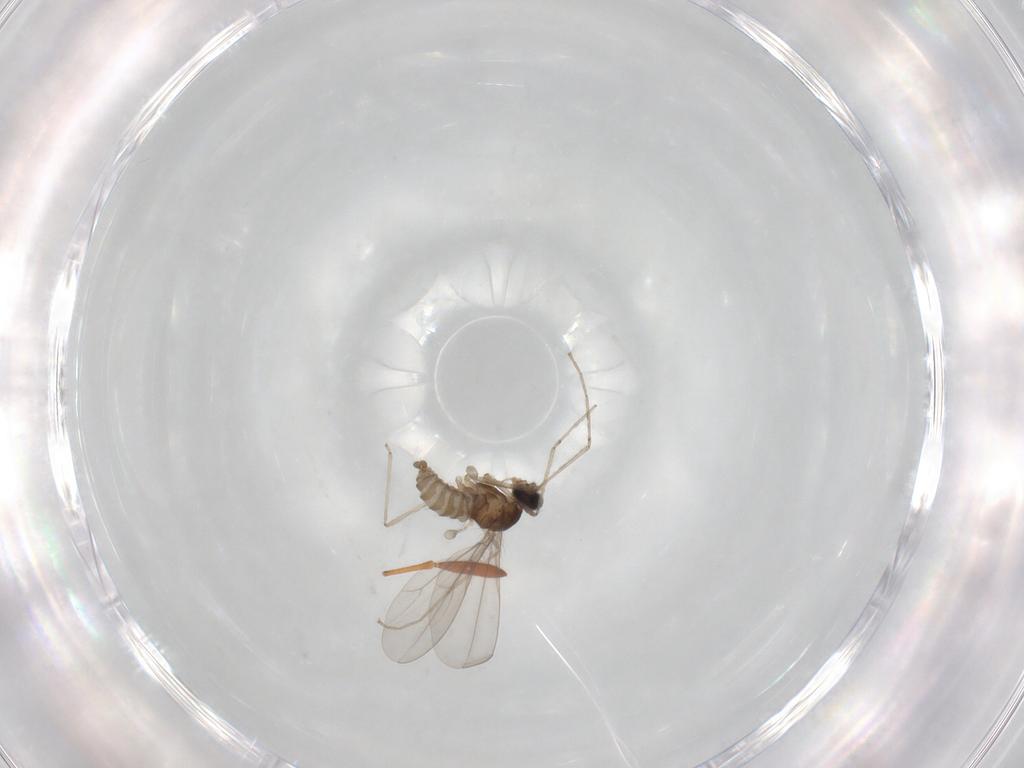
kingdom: Animalia
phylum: Arthropoda
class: Insecta
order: Diptera
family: Cecidomyiidae
